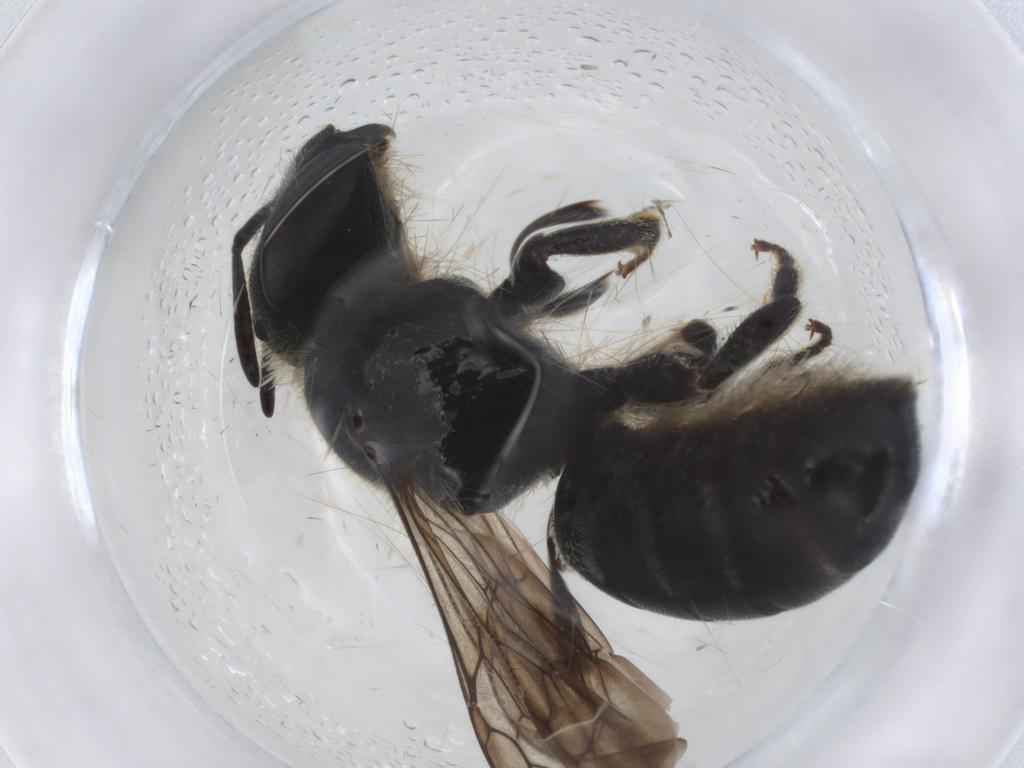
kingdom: Animalia
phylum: Arthropoda
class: Insecta
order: Hymenoptera
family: Megachilidae
